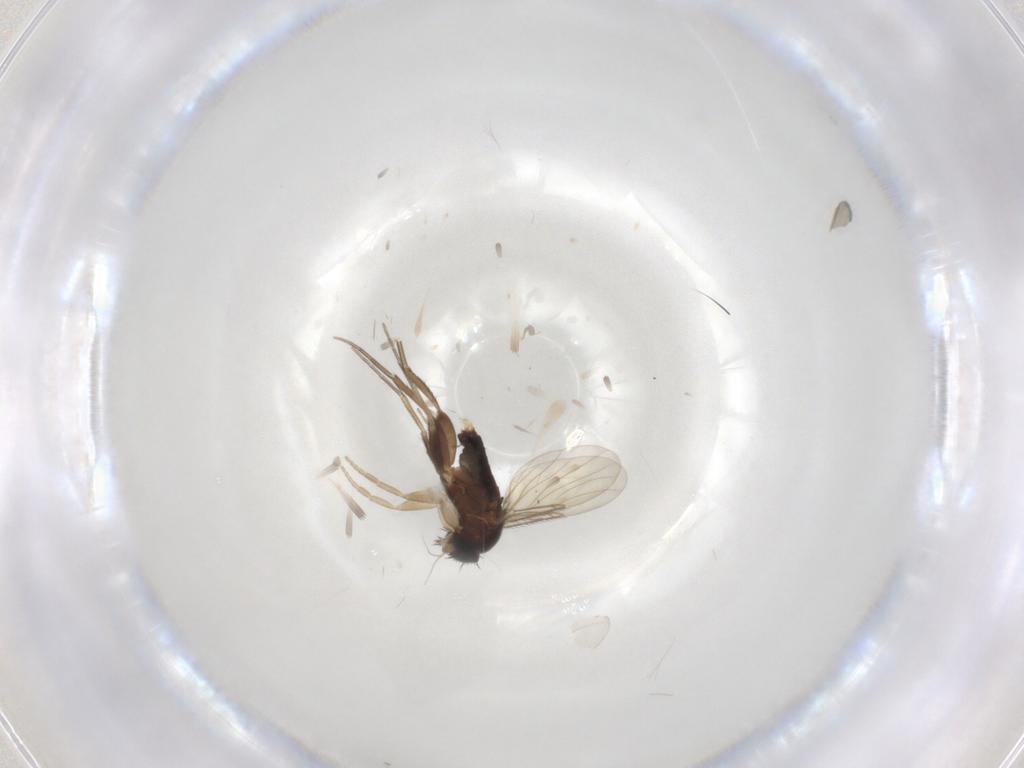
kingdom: Animalia
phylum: Arthropoda
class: Insecta
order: Diptera
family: Phoridae
